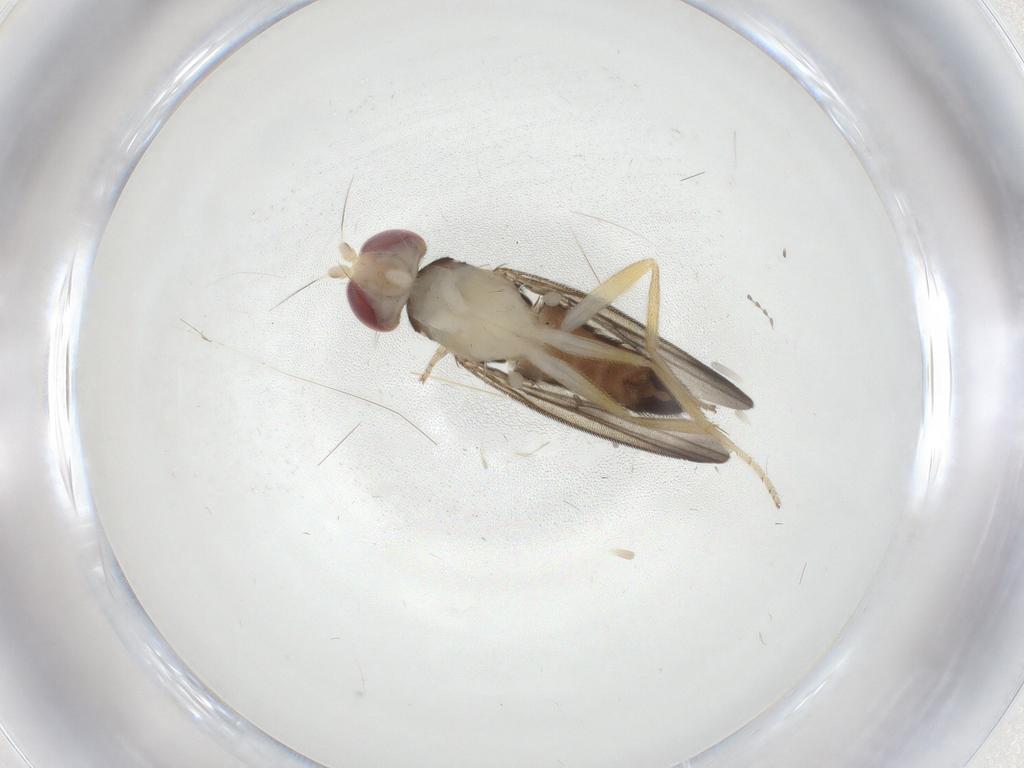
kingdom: Animalia
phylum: Arthropoda
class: Insecta
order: Diptera
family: Clusiidae
